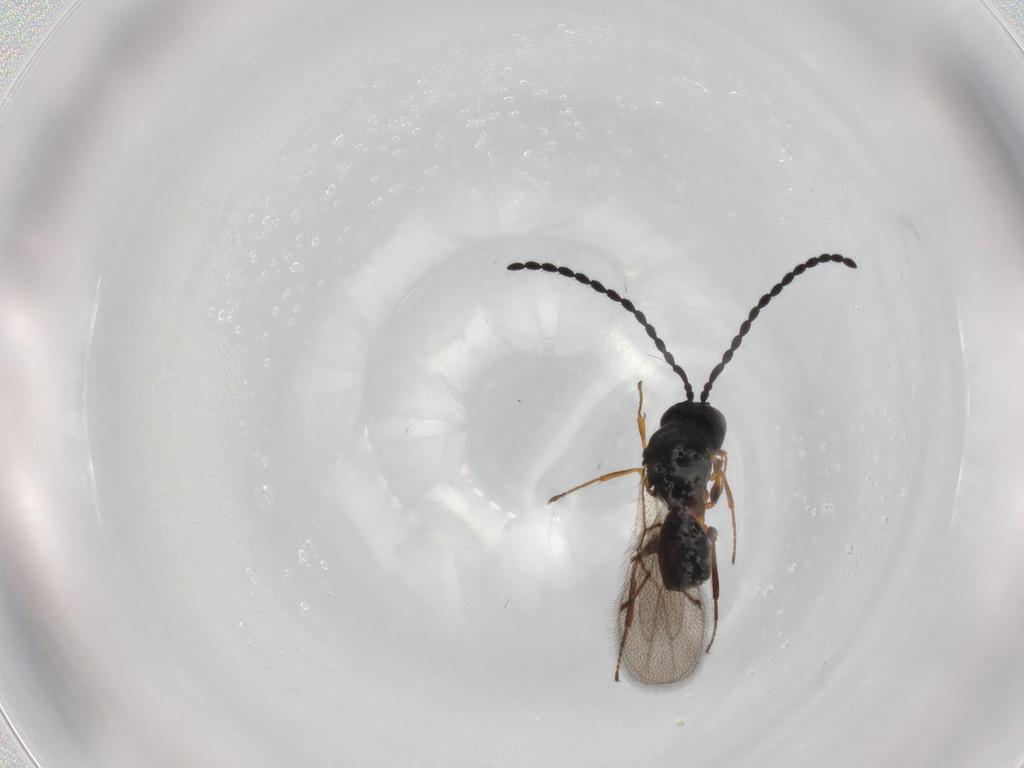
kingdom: Animalia
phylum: Arthropoda
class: Insecta
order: Hymenoptera
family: Figitidae
